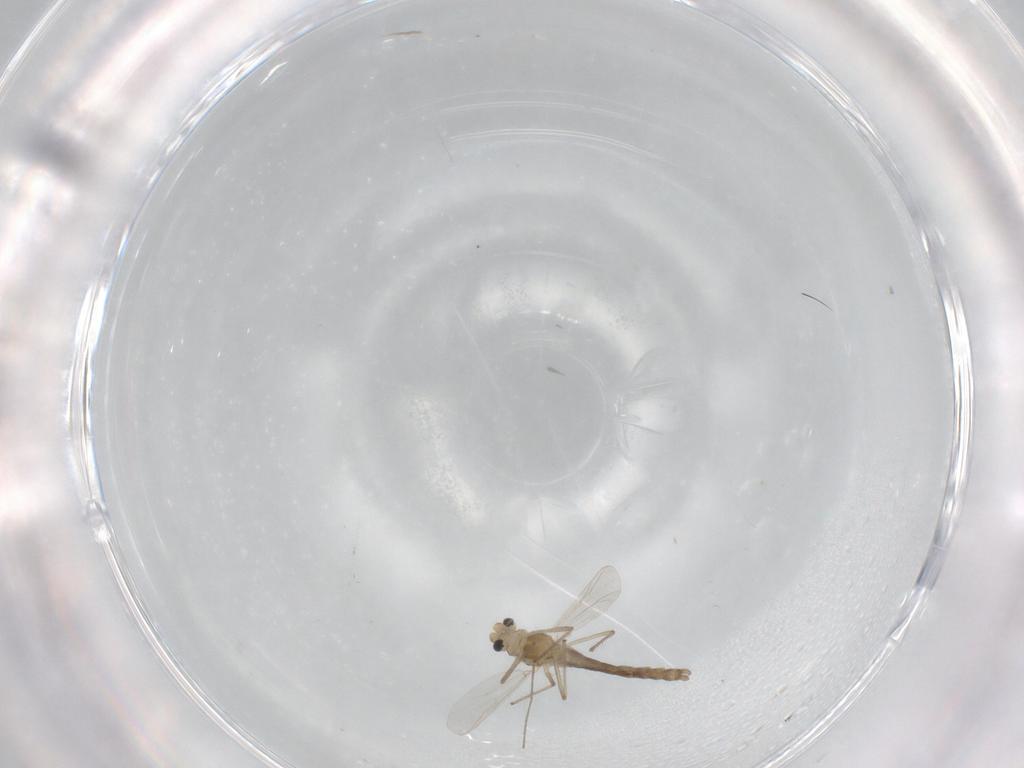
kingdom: Animalia
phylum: Arthropoda
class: Insecta
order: Diptera
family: Chironomidae
